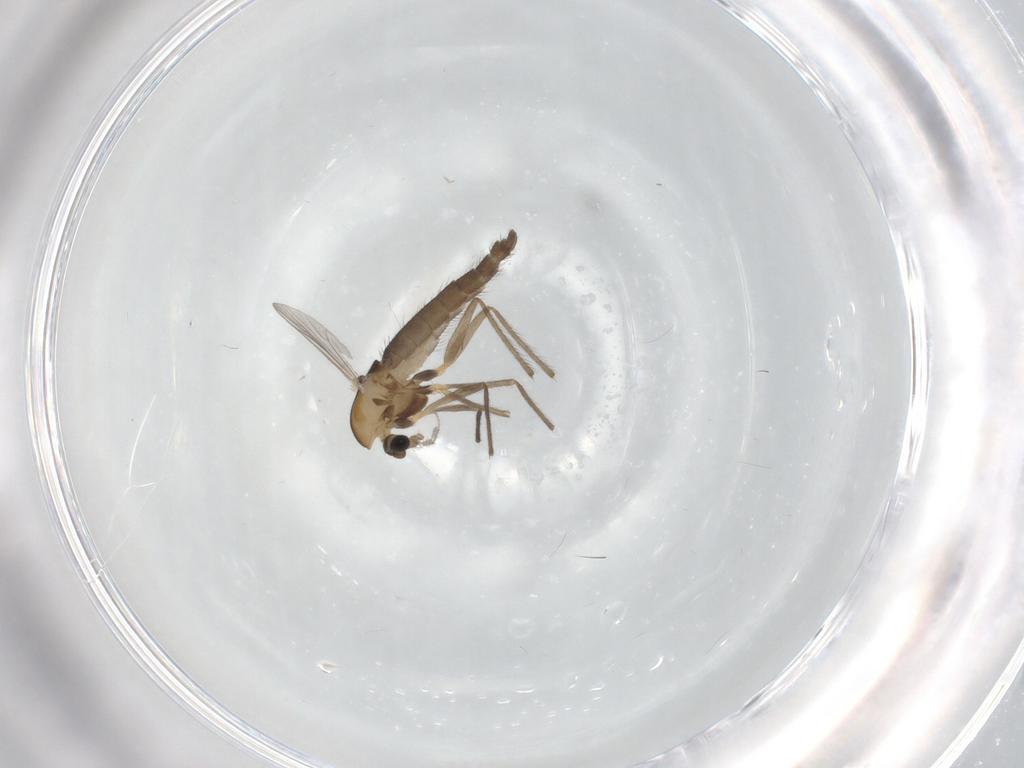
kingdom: Animalia
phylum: Arthropoda
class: Insecta
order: Diptera
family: Chironomidae
